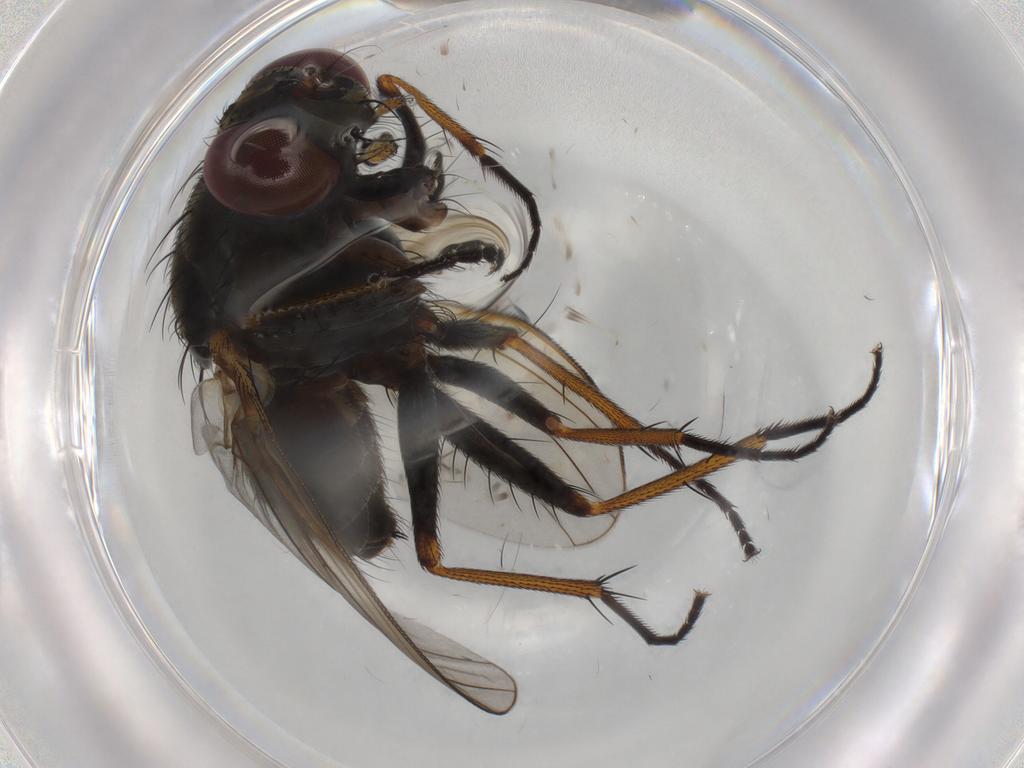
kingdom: Animalia
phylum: Arthropoda
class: Insecta
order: Diptera
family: Muscidae
